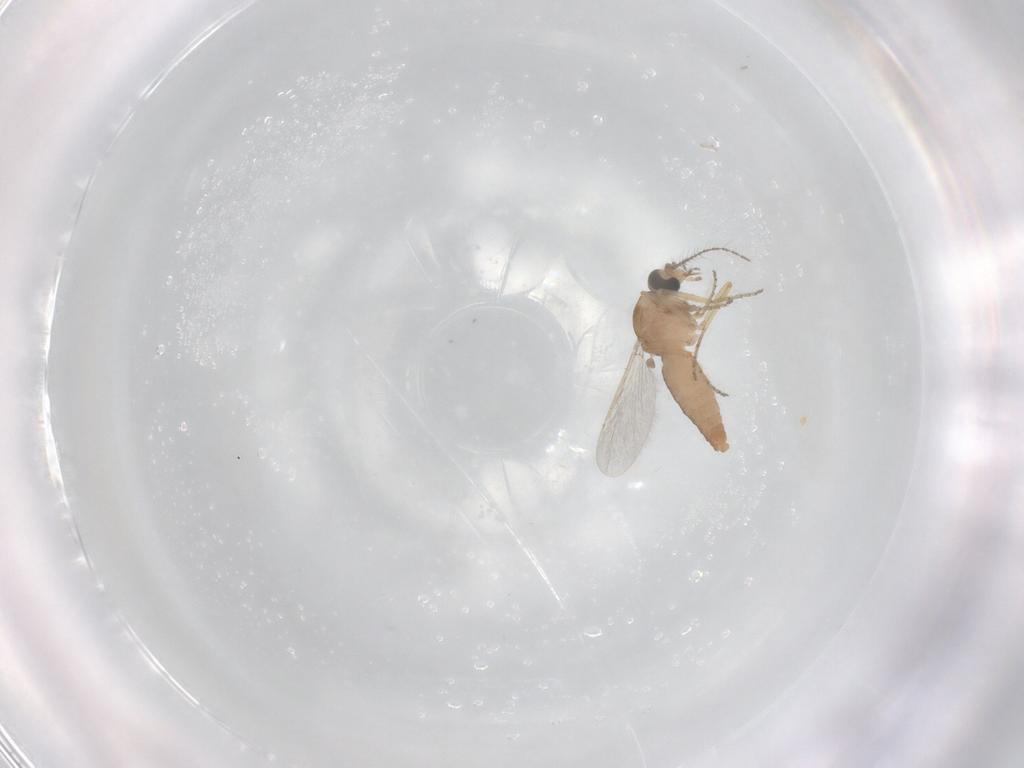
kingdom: Animalia
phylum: Arthropoda
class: Insecta
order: Diptera
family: Ceratopogonidae
